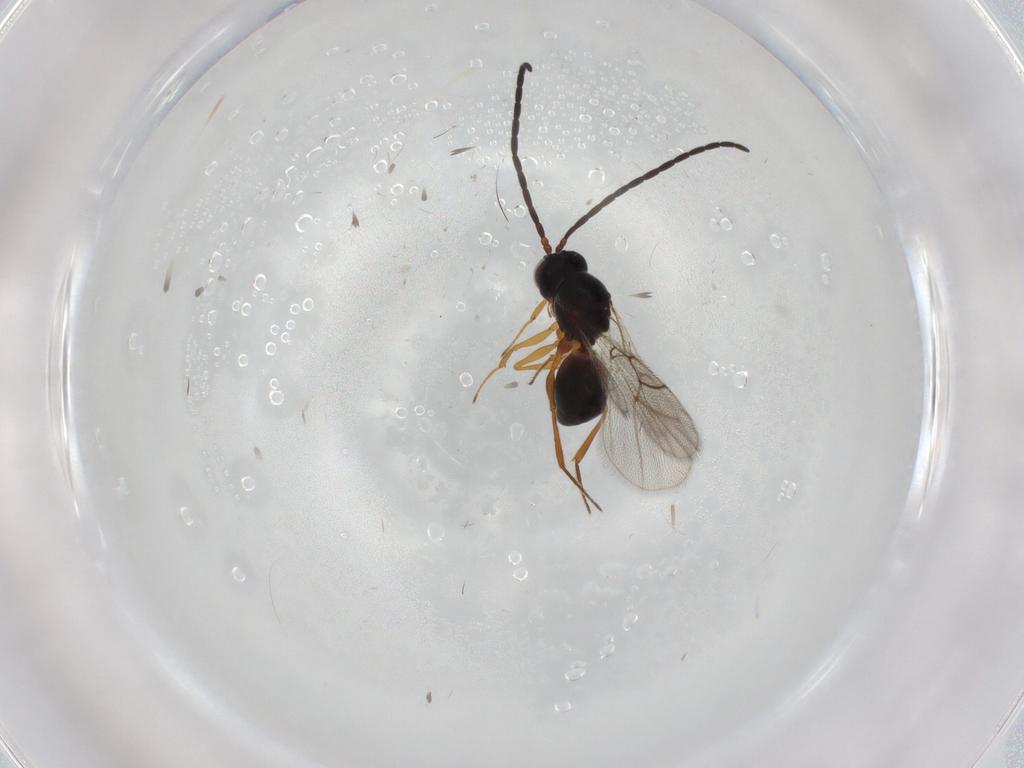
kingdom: Animalia
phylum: Arthropoda
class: Insecta
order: Hymenoptera
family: Figitidae
